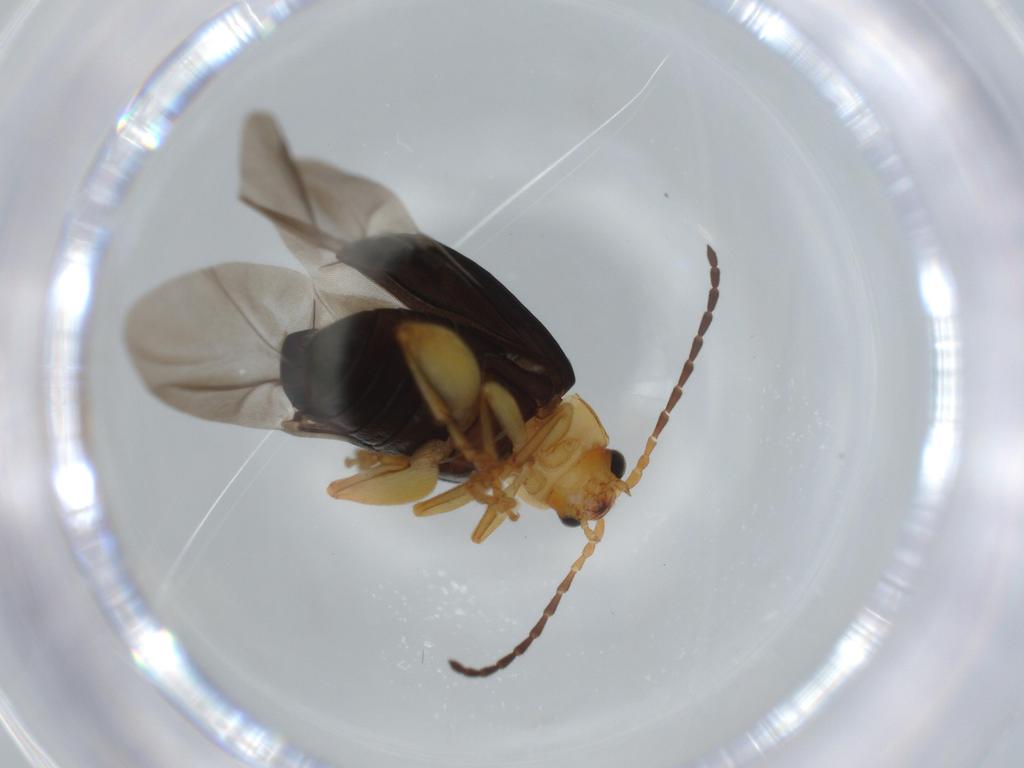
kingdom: Animalia
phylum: Arthropoda
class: Insecta
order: Coleoptera
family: Chrysomelidae
